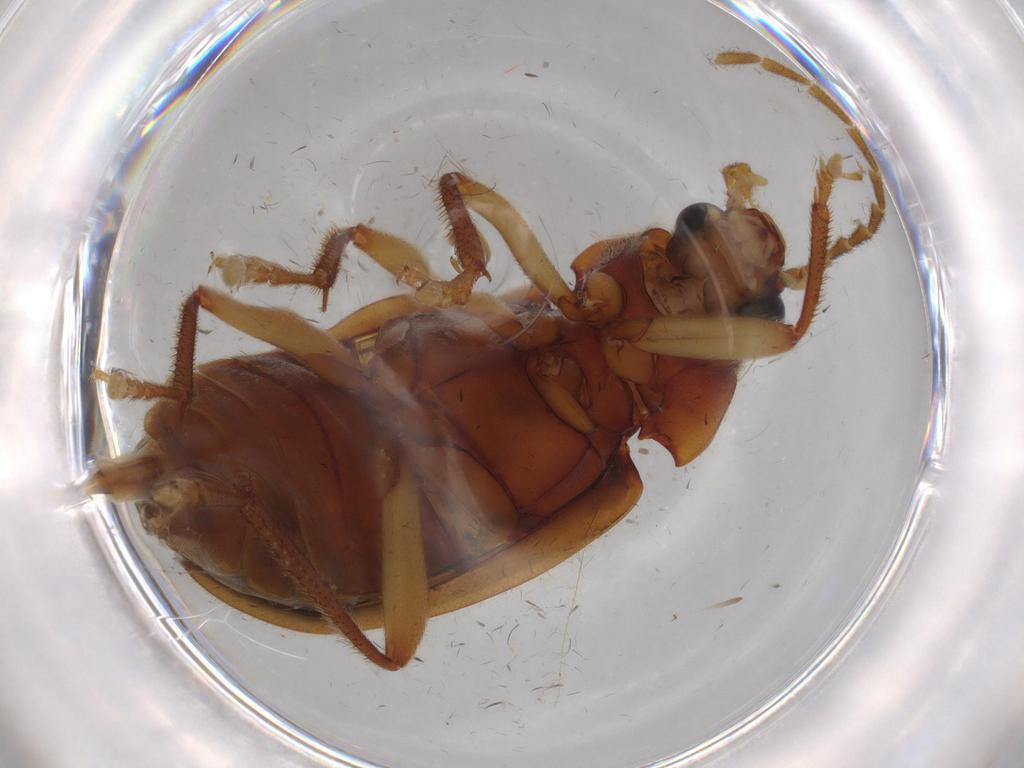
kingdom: Animalia
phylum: Arthropoda
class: Insecta
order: Coleoptera
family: Ptilodactylidae
